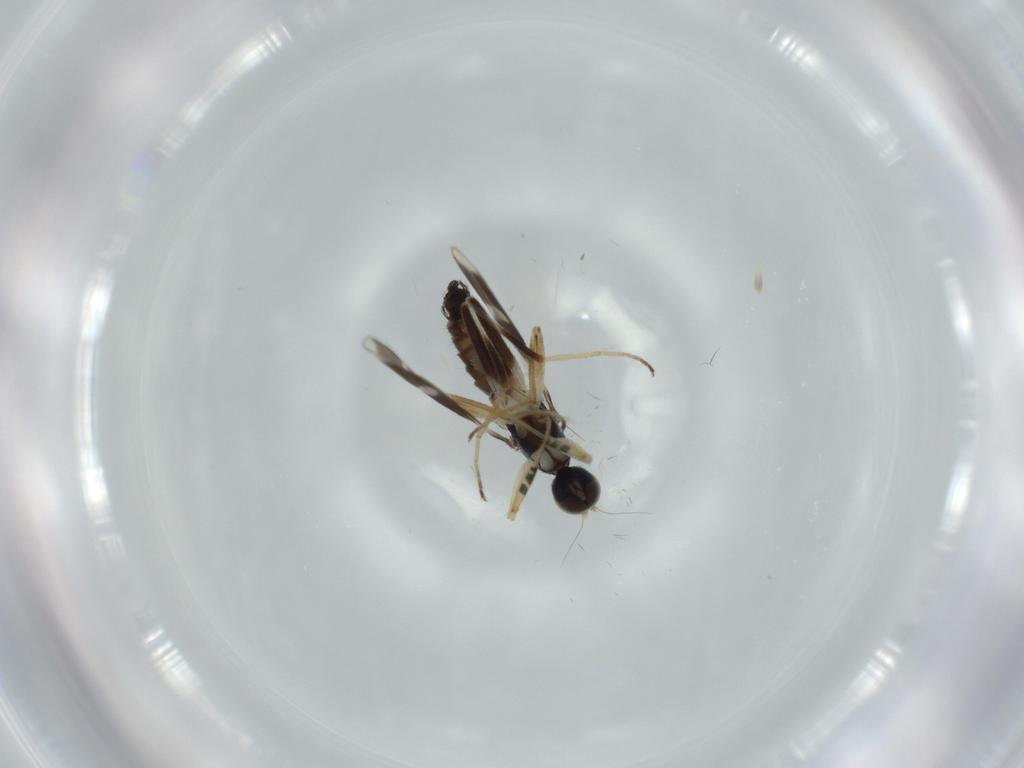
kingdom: Animalia
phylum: Arthropoda
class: Insecta
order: Diptera
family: Hybotidae
